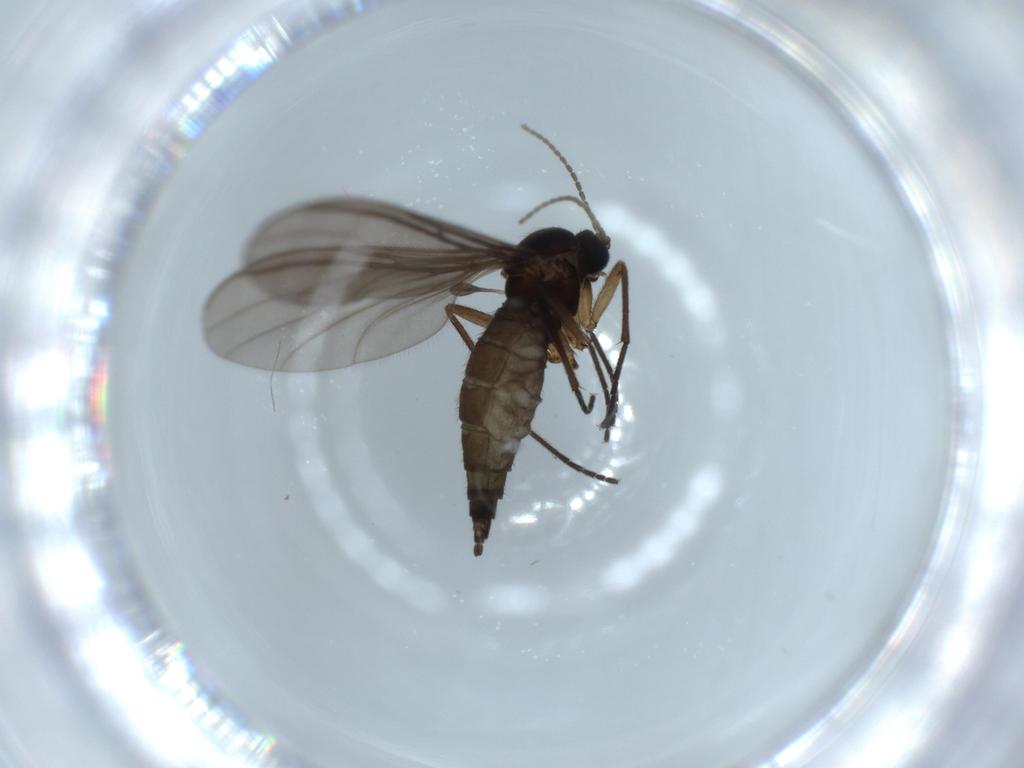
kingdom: Animalia
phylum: Arthropoda
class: Insecta
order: Diptera
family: Sciaridae
